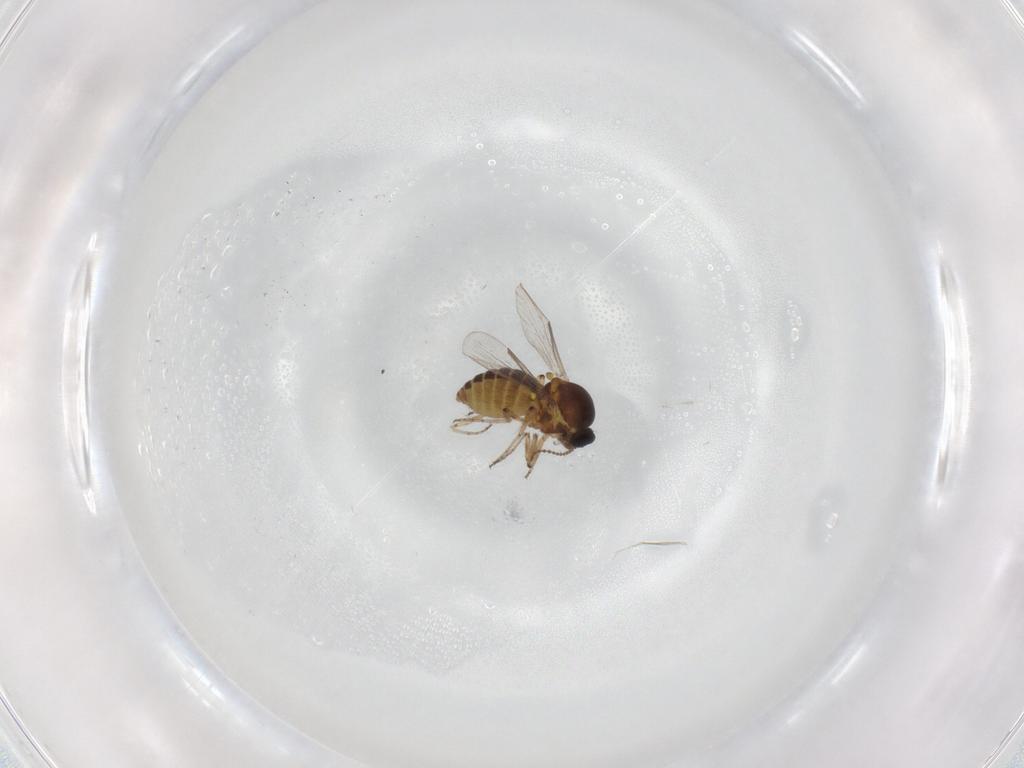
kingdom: Animalia
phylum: Arthropoda
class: Insecta
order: Diptera
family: Ceratopogonidae
